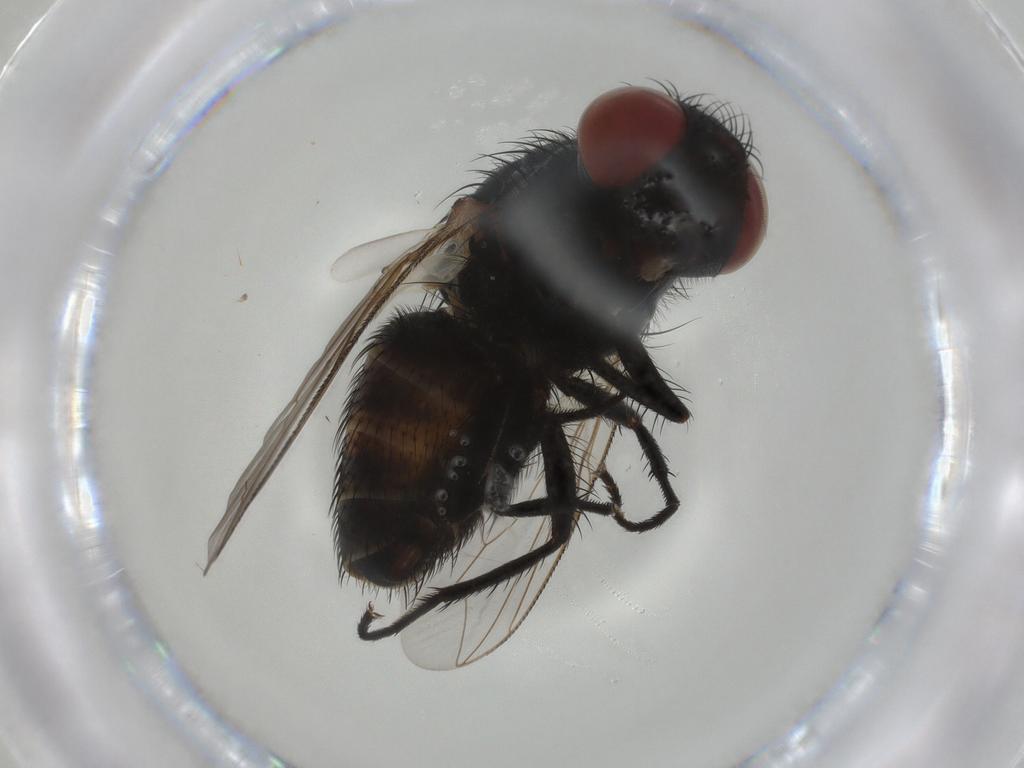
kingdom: Animalia
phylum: Arthropoda
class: Insecta
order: Diptera
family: Sarcophagidae
